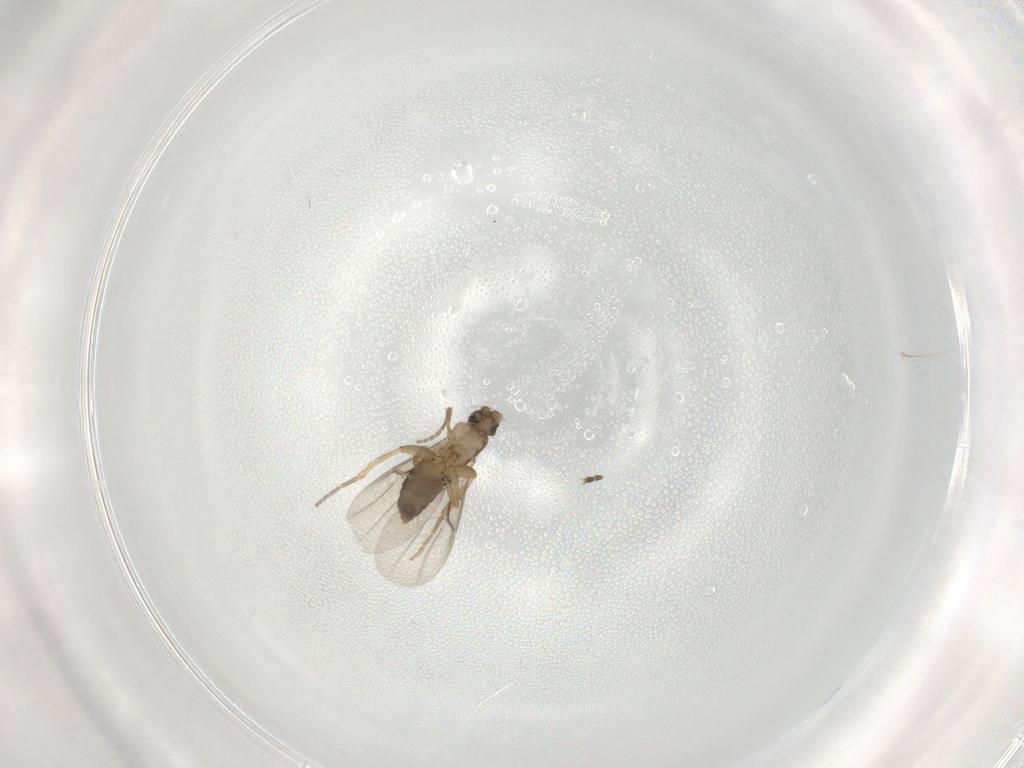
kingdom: Animalia
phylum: Arthropoda
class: Insecta
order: Diptera
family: Phoridae
